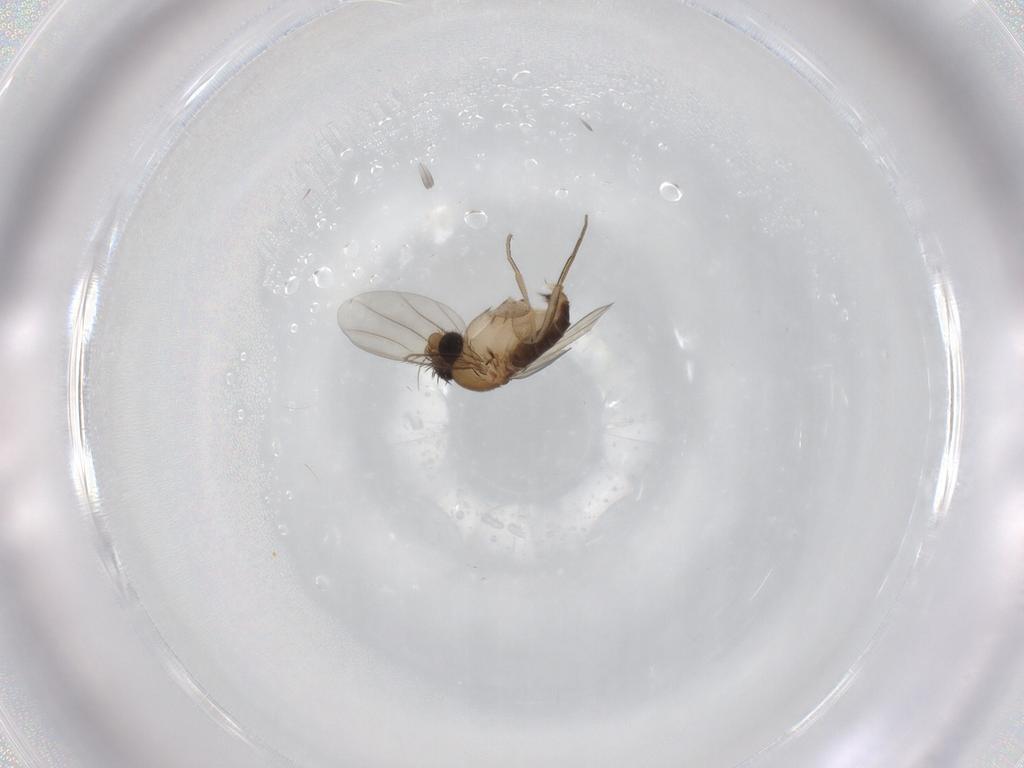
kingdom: Animalia
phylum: Arthropoda
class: Insecta
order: Diptera
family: Phoridae
